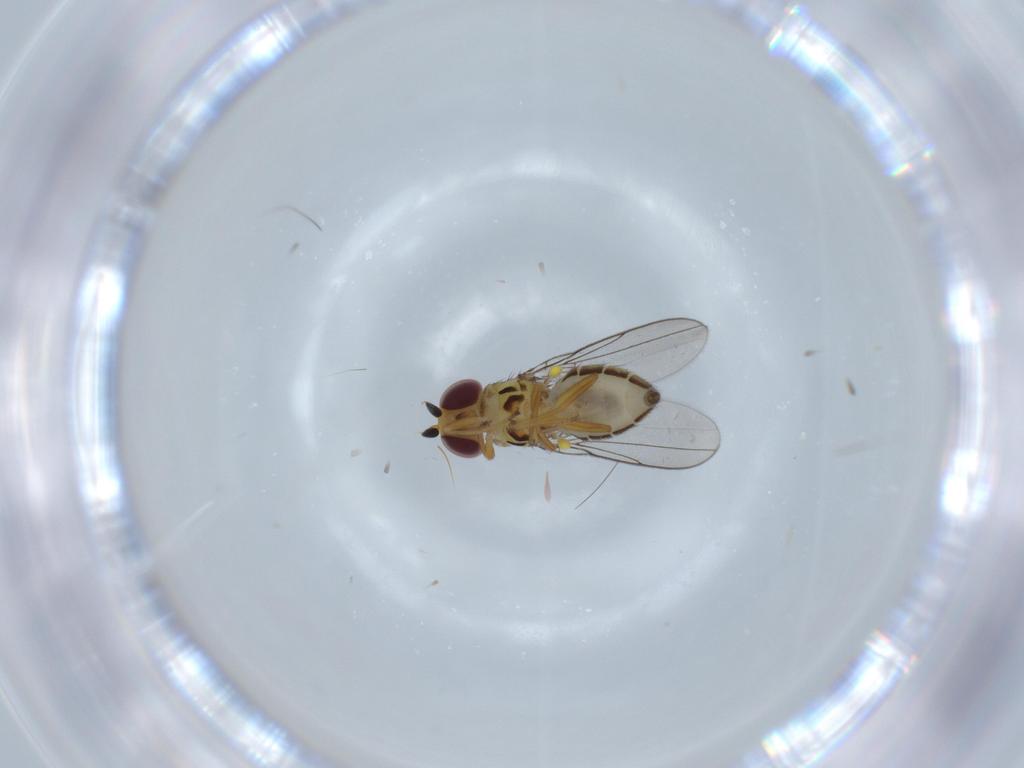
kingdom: Animalia
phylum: Arthropoda
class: Insecta
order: Diptera
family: Chloropidae
